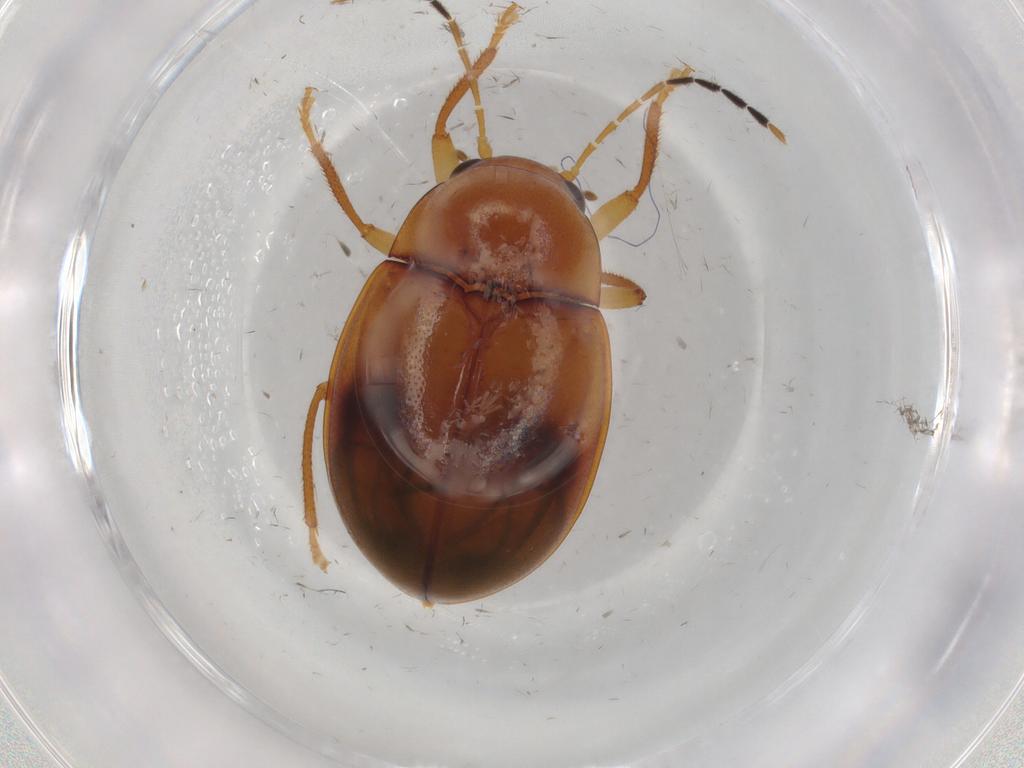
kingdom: Animalia
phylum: Arthropoda
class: Insecta
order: Coleoptera
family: Ptilodactylidae
